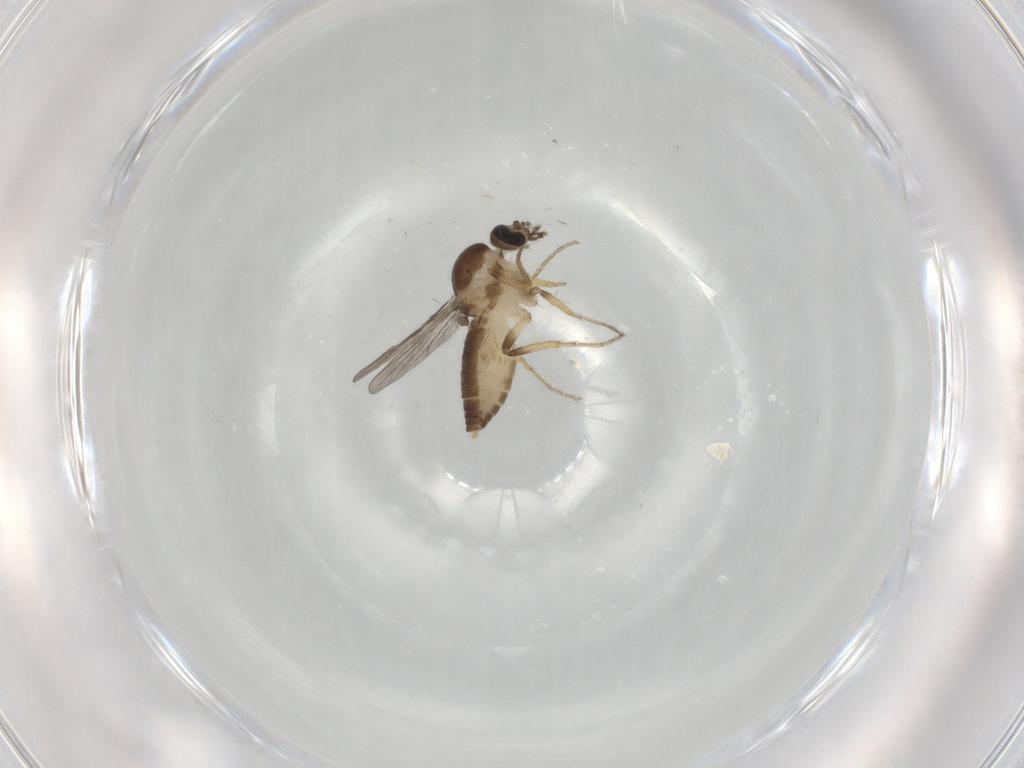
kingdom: Animalia
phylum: Arthropoda
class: Insecta
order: Diptera
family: Ceratopogonidae
